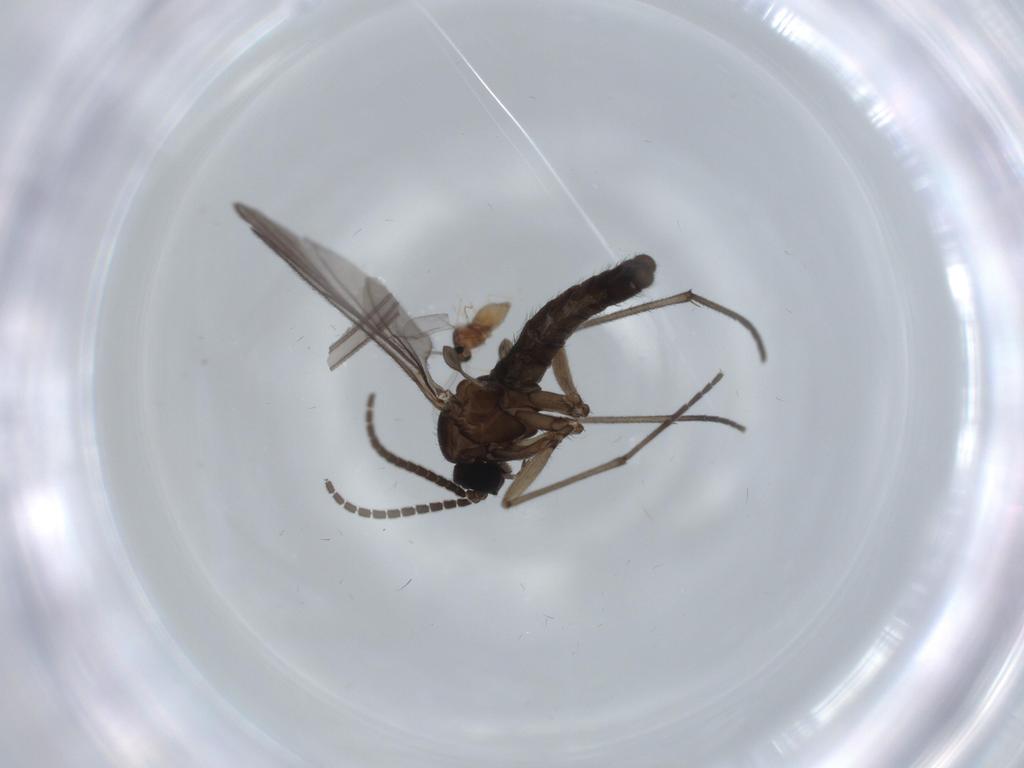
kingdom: Animalia
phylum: Arthropoda
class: Insecta
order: Diptera
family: Sciaridae
